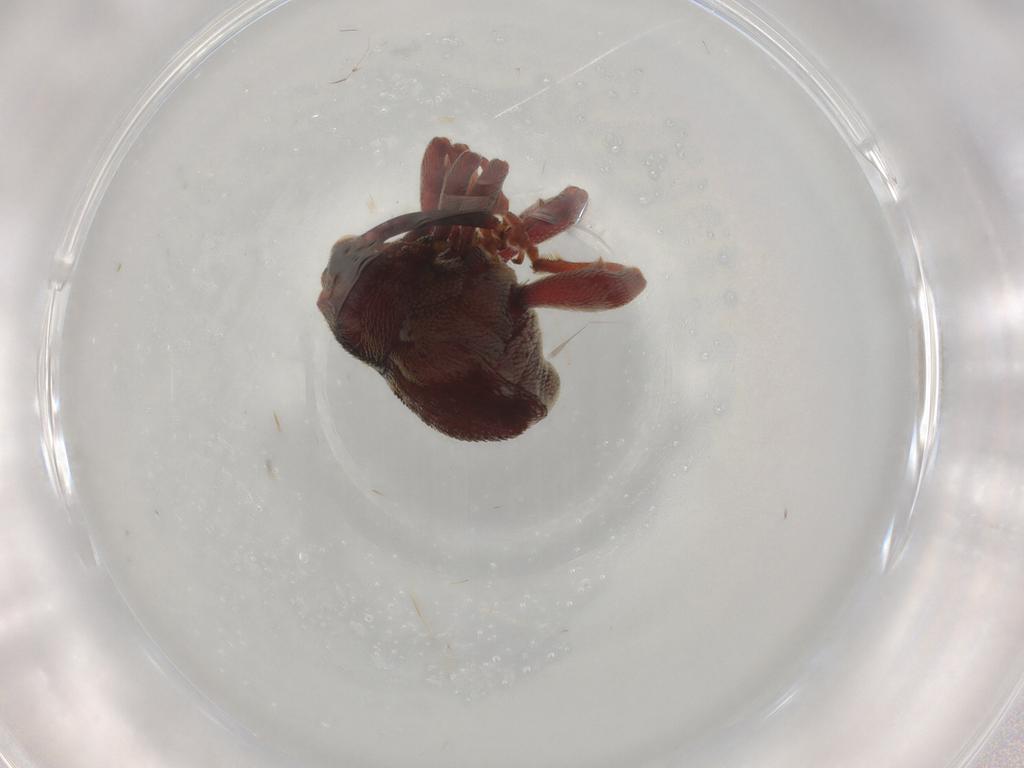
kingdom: Animalia
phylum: Arthropoda
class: Insecta
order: Coleoptera
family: Curculionidae
